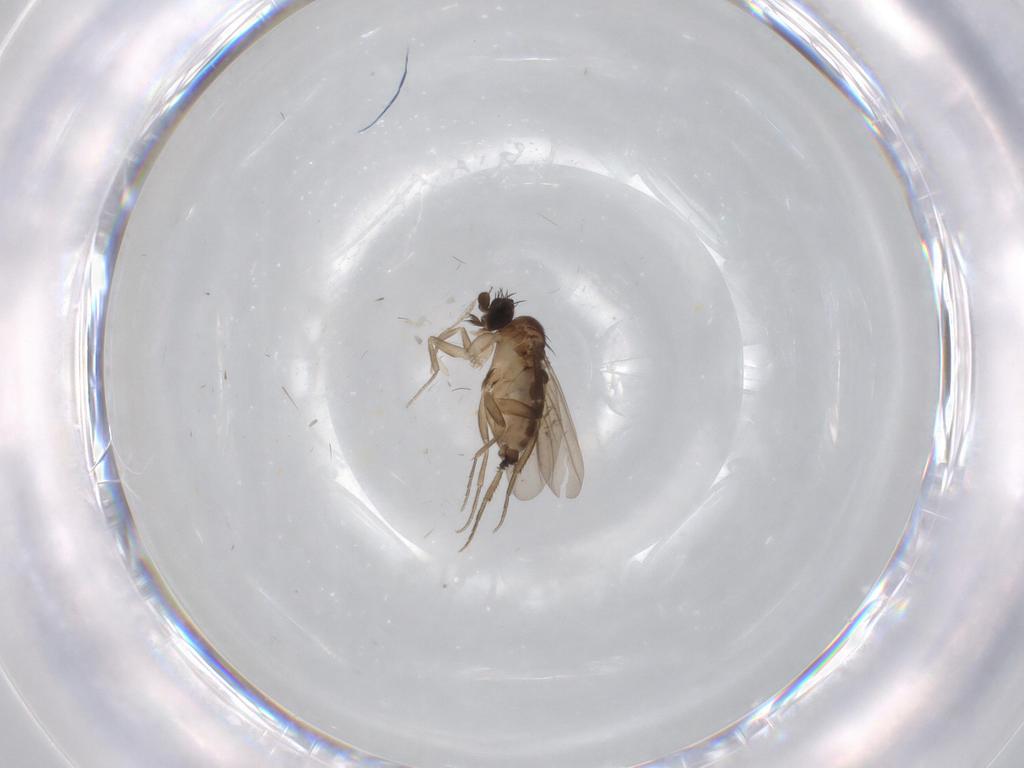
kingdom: Animalia
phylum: Arthropoda
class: Insecta
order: Diptera
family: Phoridae
